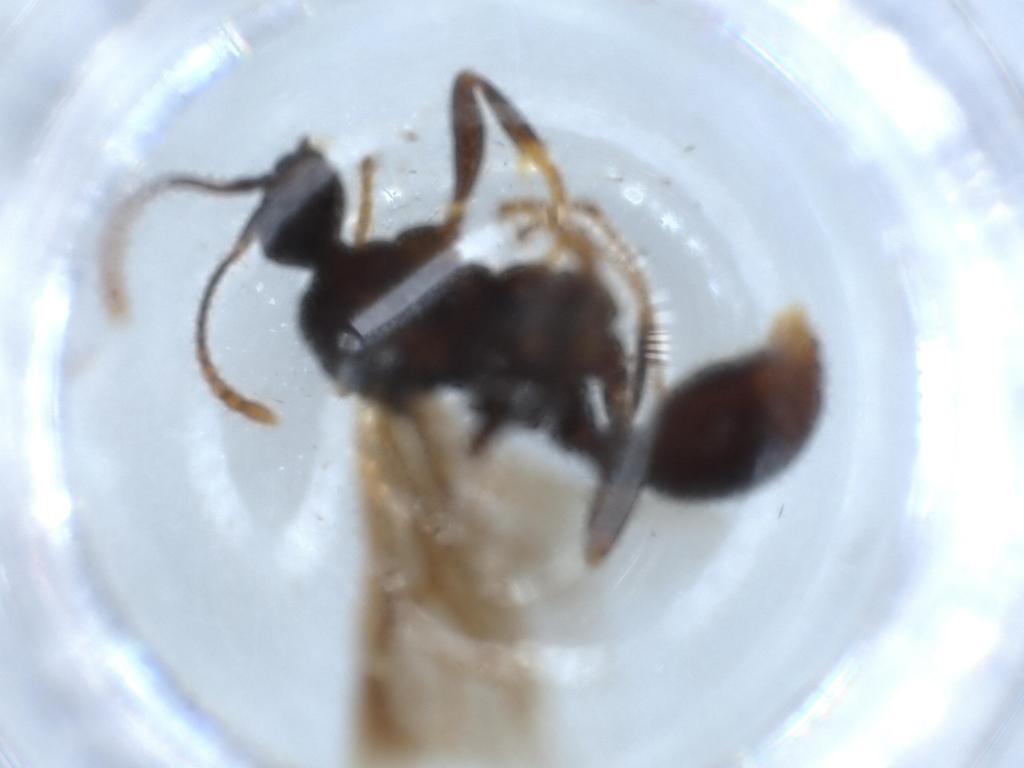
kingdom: Animalia
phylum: Arthropoda
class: Insecta
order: Hymenoptera
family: Formicidae
